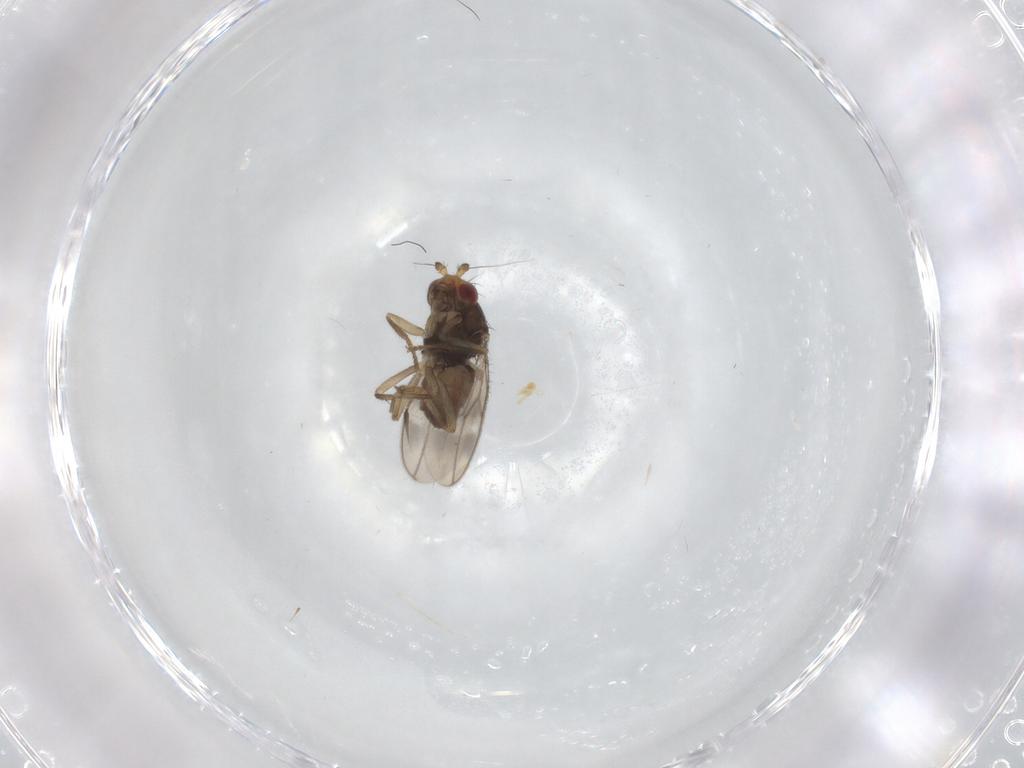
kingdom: Animalia
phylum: Arthropoda
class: Insecta
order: Diptera
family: Sphaeroceridae
